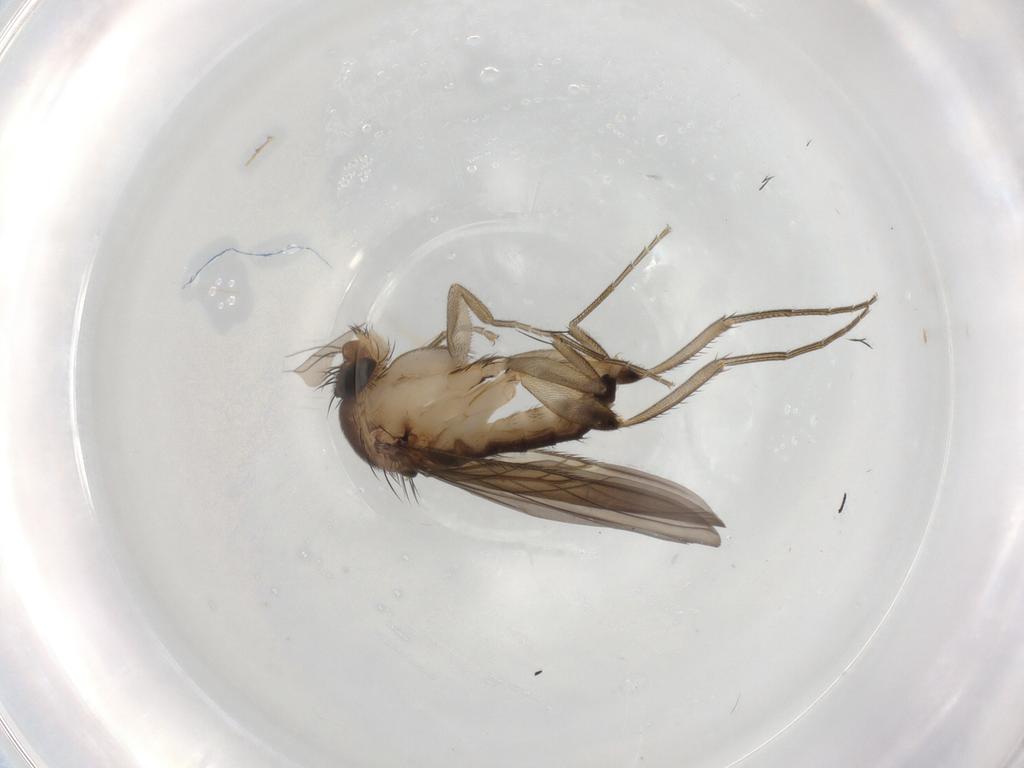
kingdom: Animalia
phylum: Arthropoda
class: Insecta
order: Diptera
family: Phoridae
